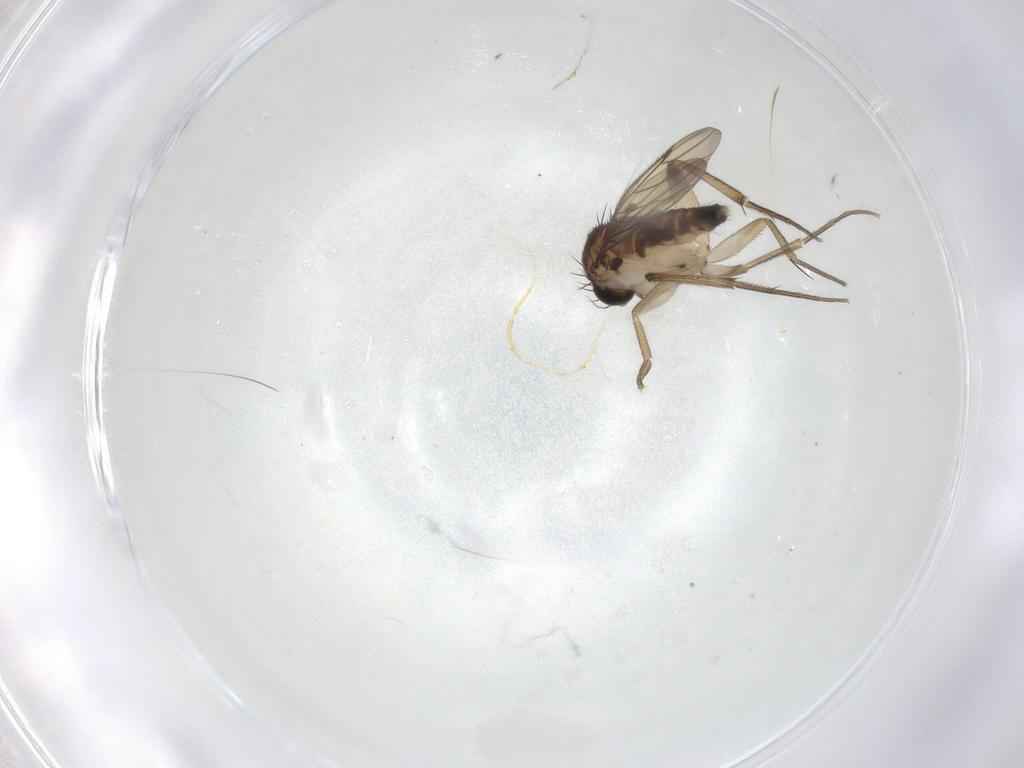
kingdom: Animalia
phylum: Arthropoda
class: Insecta
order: Diptera
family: Phoridae
